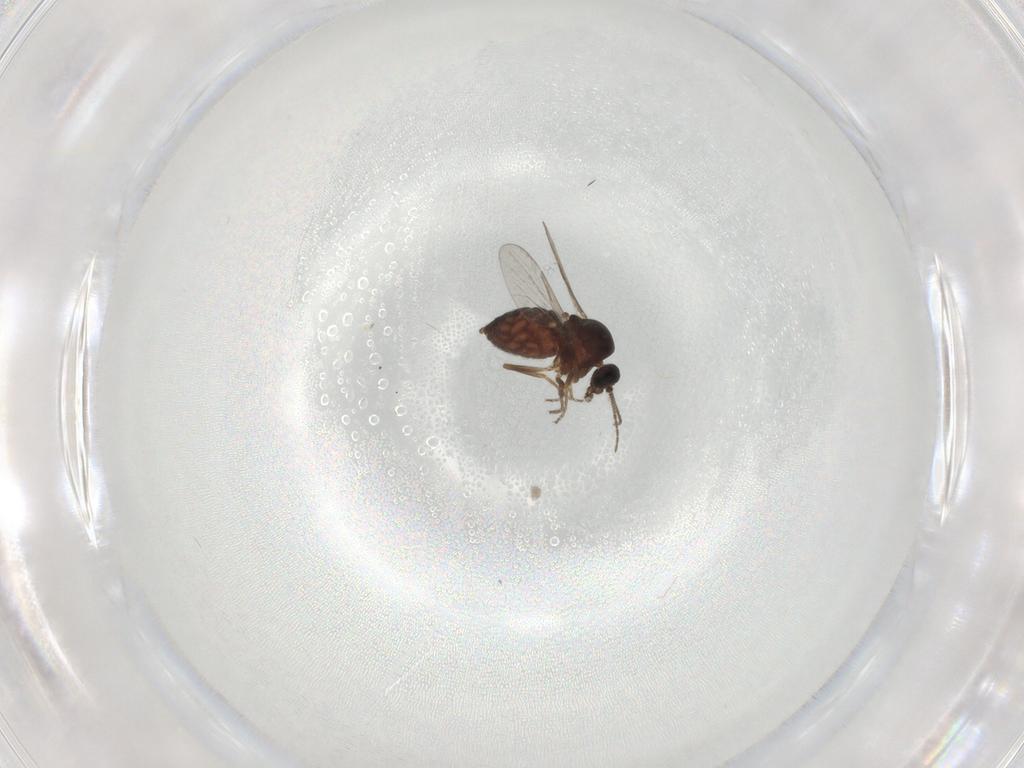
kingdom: Animalia
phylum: Arthropoda
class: Insecta
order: Diptera
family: Ceratopogonidae
